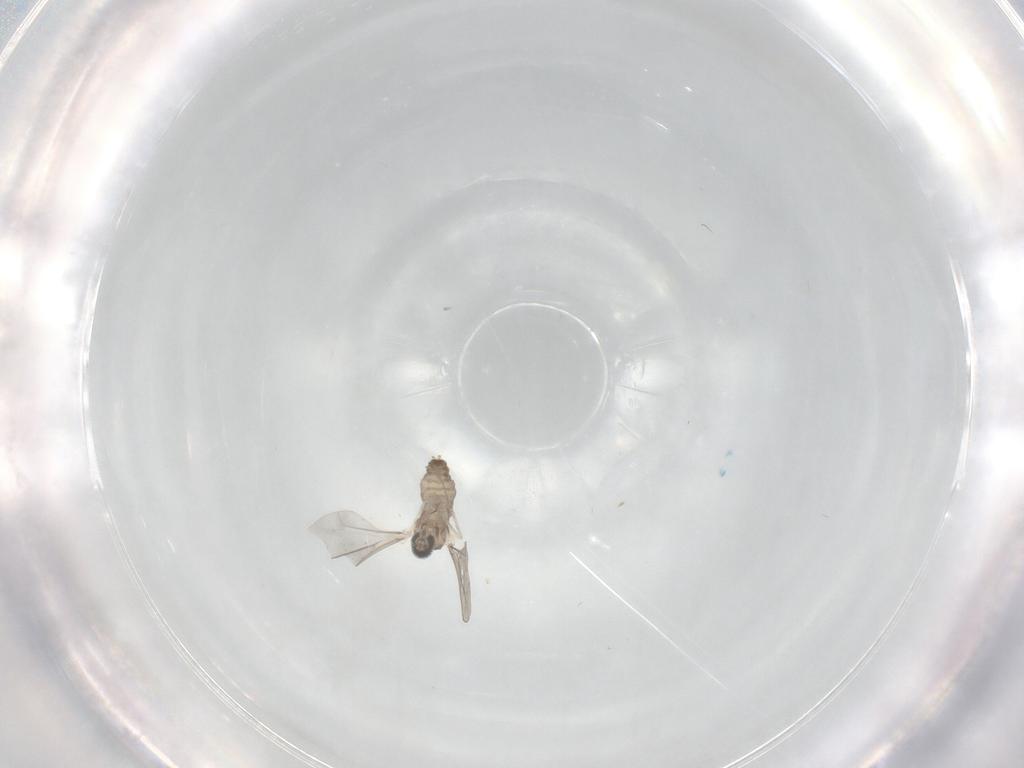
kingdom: Animalia
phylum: Arthropoda
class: Insecta
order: Diptera
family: Cecidomyiidae
